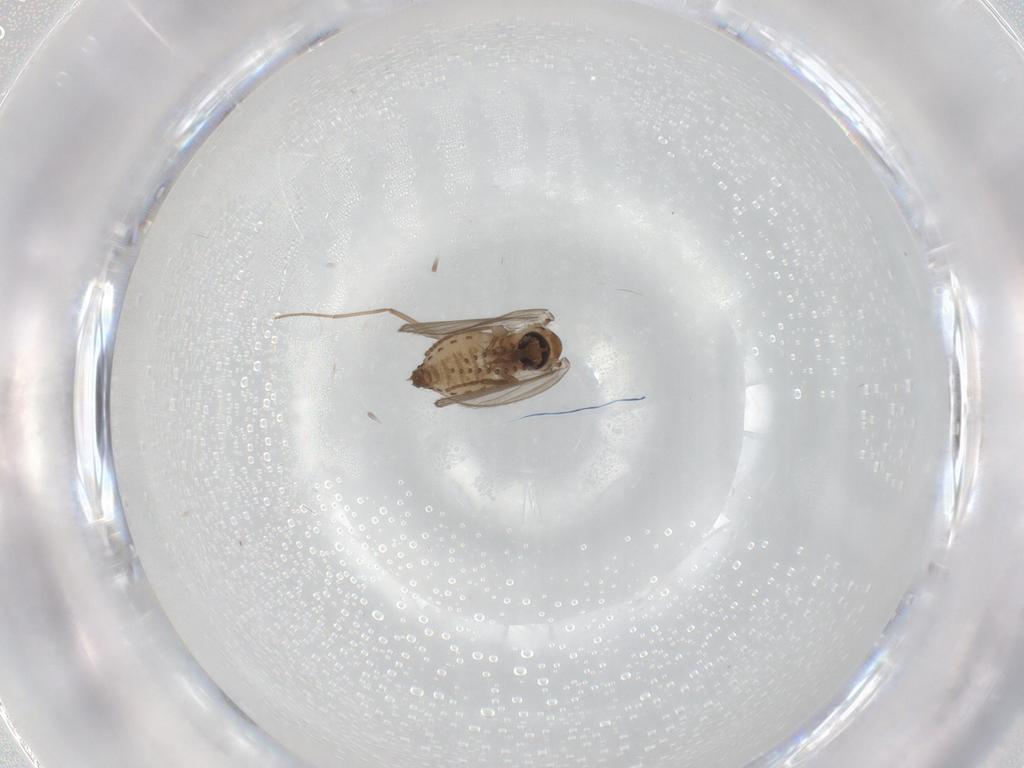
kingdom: Animalia
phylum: Arthropoda
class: Insecta
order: Diptera
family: Psychodidae
